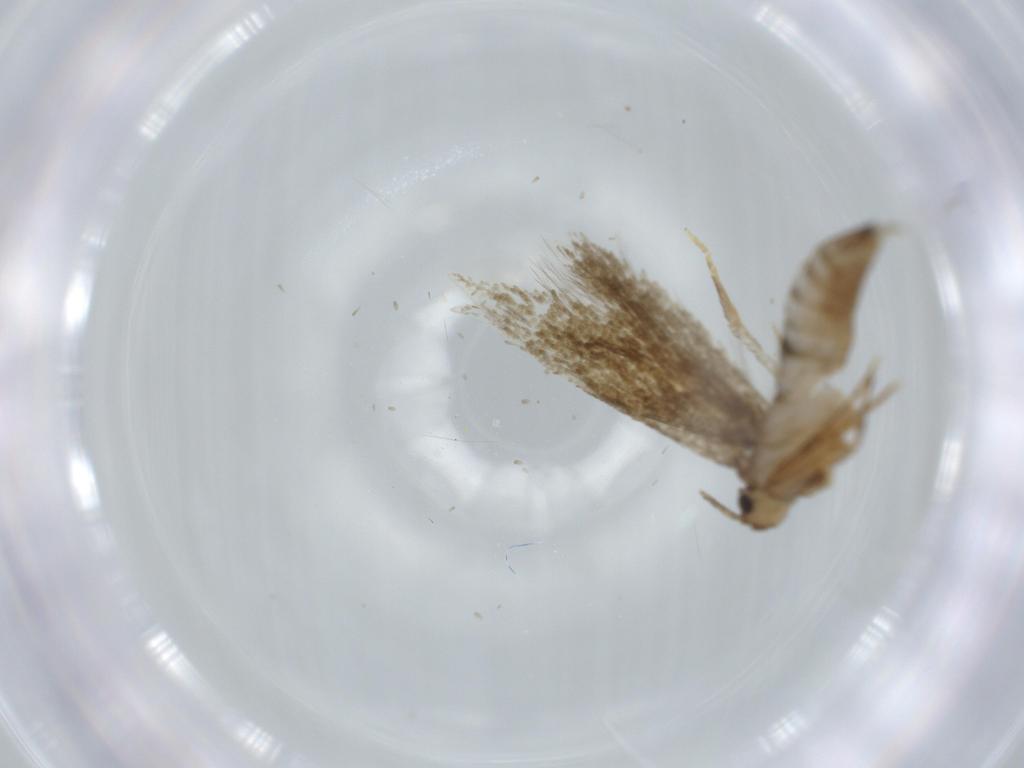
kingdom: Animalia
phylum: Arthropoda
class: Insecta
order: Lepidoptera
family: Tineidae
